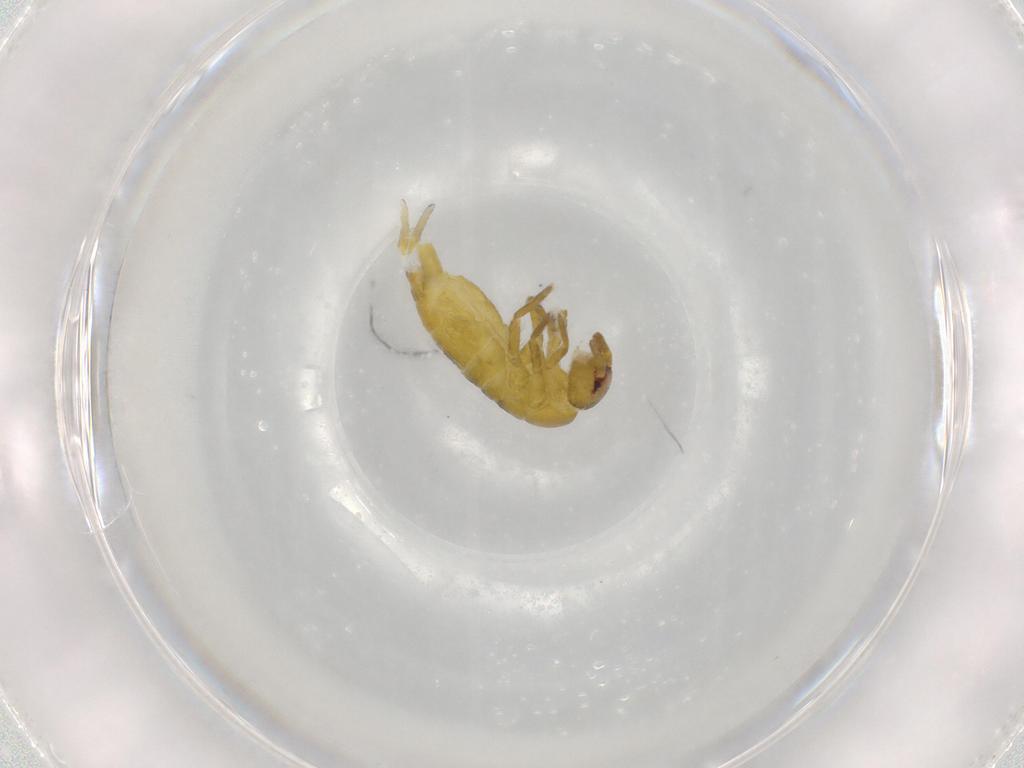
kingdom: Animalia
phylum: Arthropoda
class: Collembola
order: Entomobryomorpha
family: Tomoceridae
